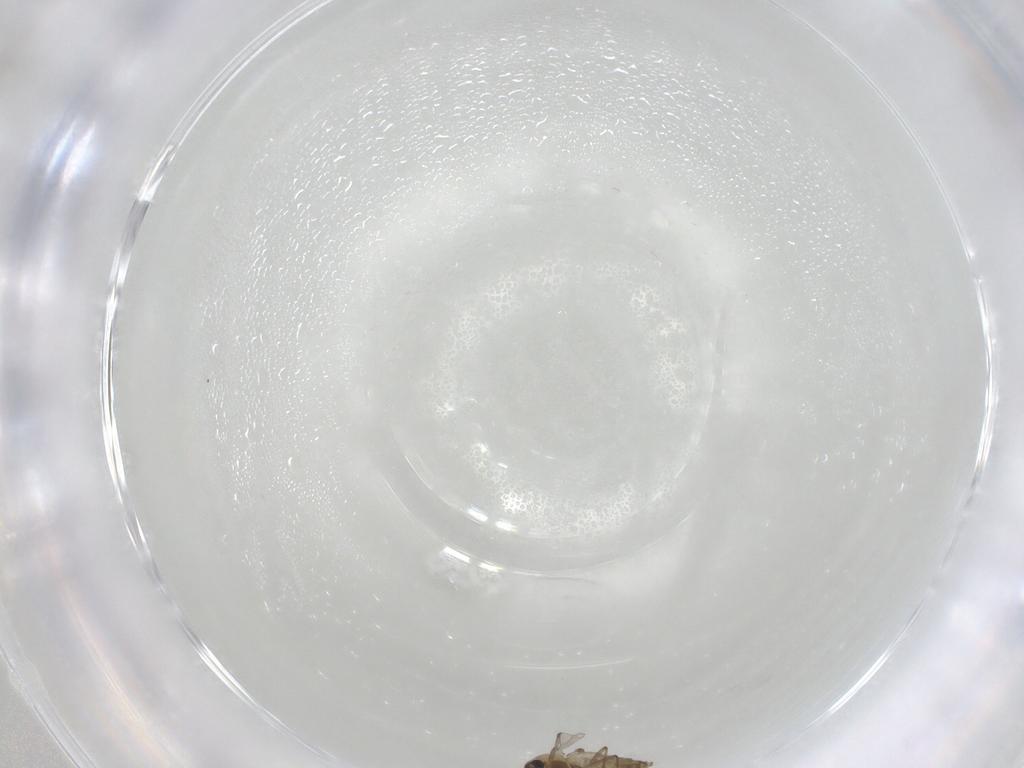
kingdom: Animalia
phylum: Arthropoda
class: Insecta
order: Diptera
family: Chironomidae
